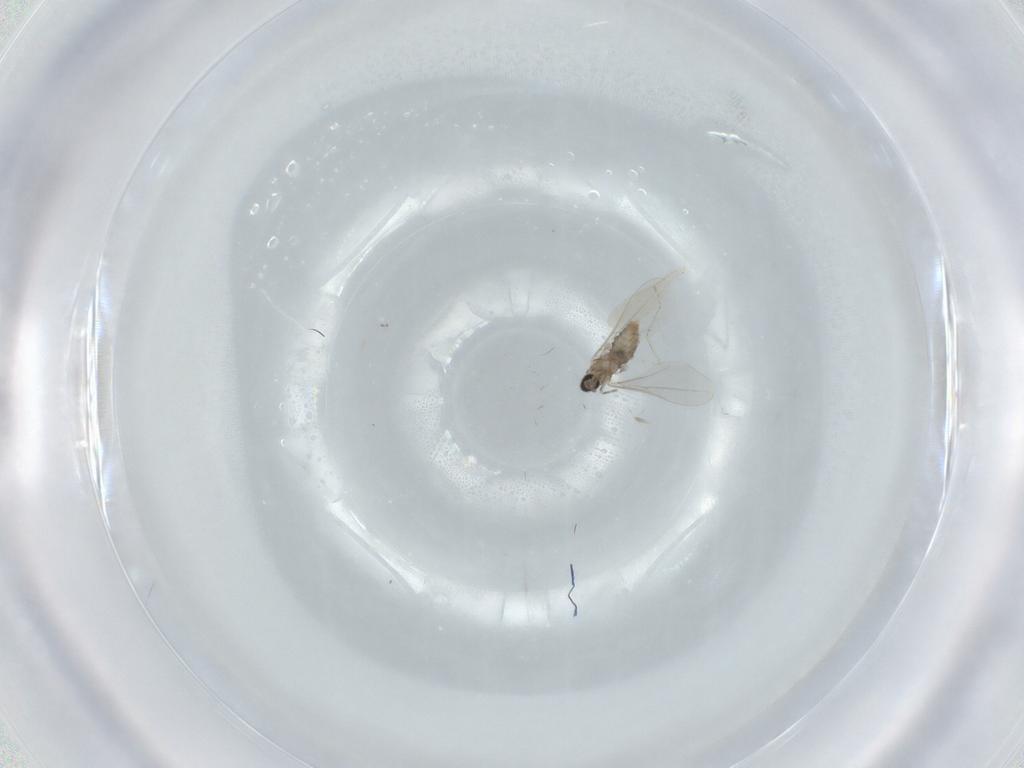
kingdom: Animalia
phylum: Arthropoda
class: Insecta
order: Diptera
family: Cecidomyiidae
